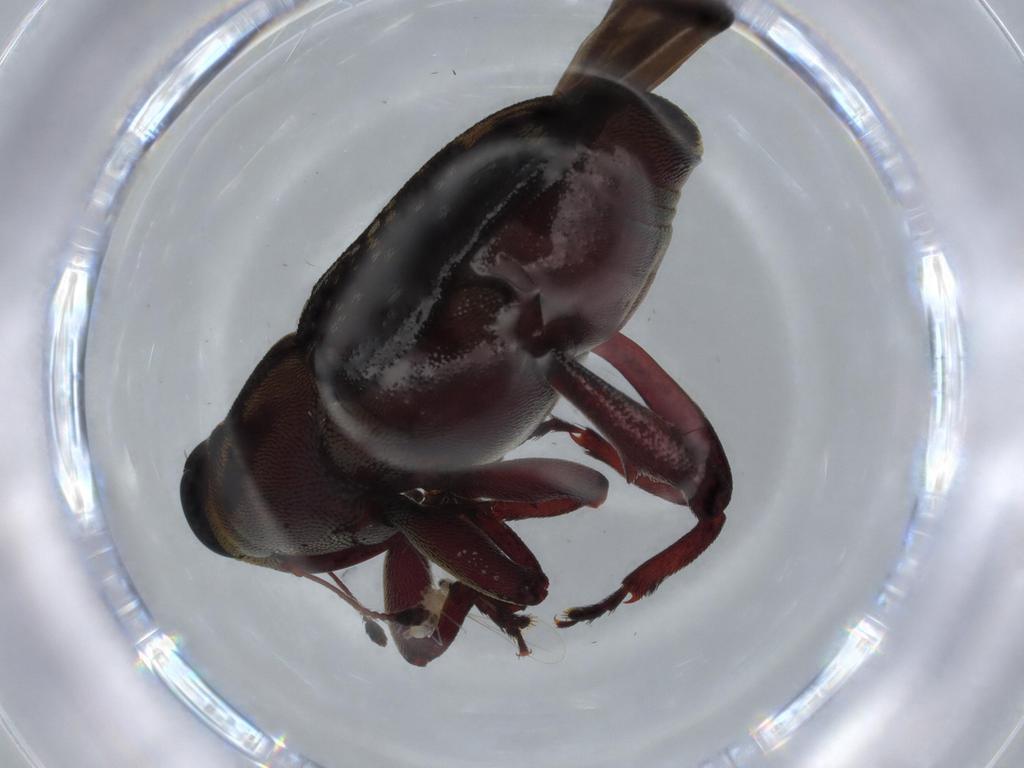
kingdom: Animalia
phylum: Arthropoda
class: Insecta
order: Coleoptera
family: Curculionidae
